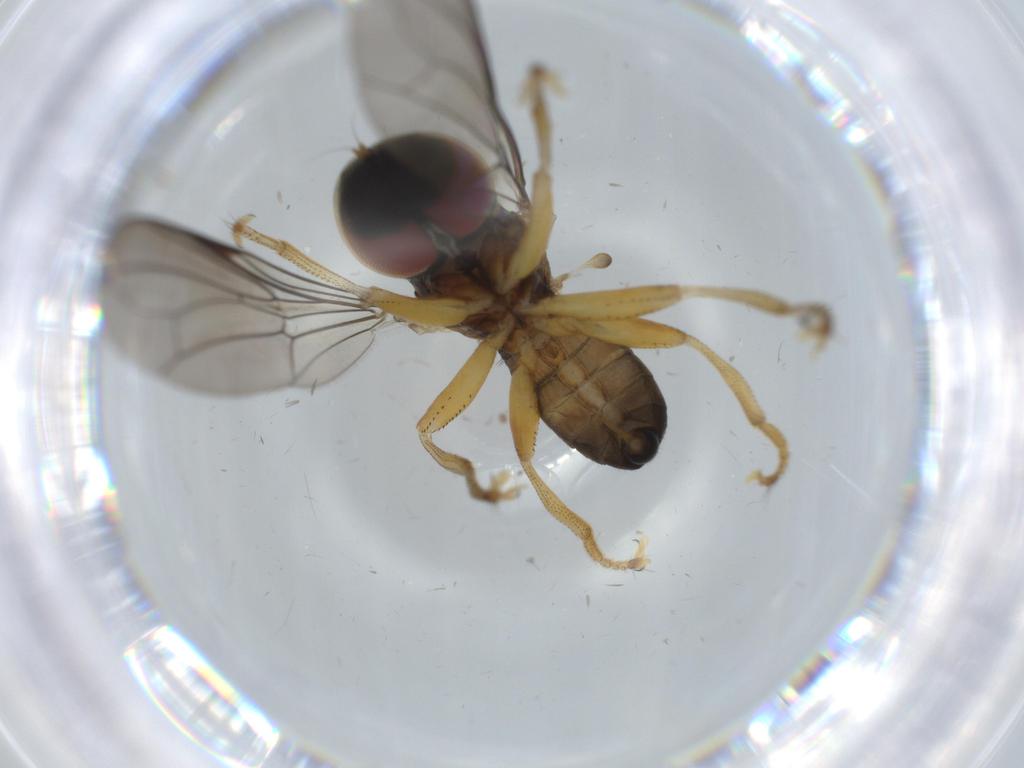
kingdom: Animalia
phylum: Arthropoda
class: Insecta
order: Diptera
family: Pipunculidae
